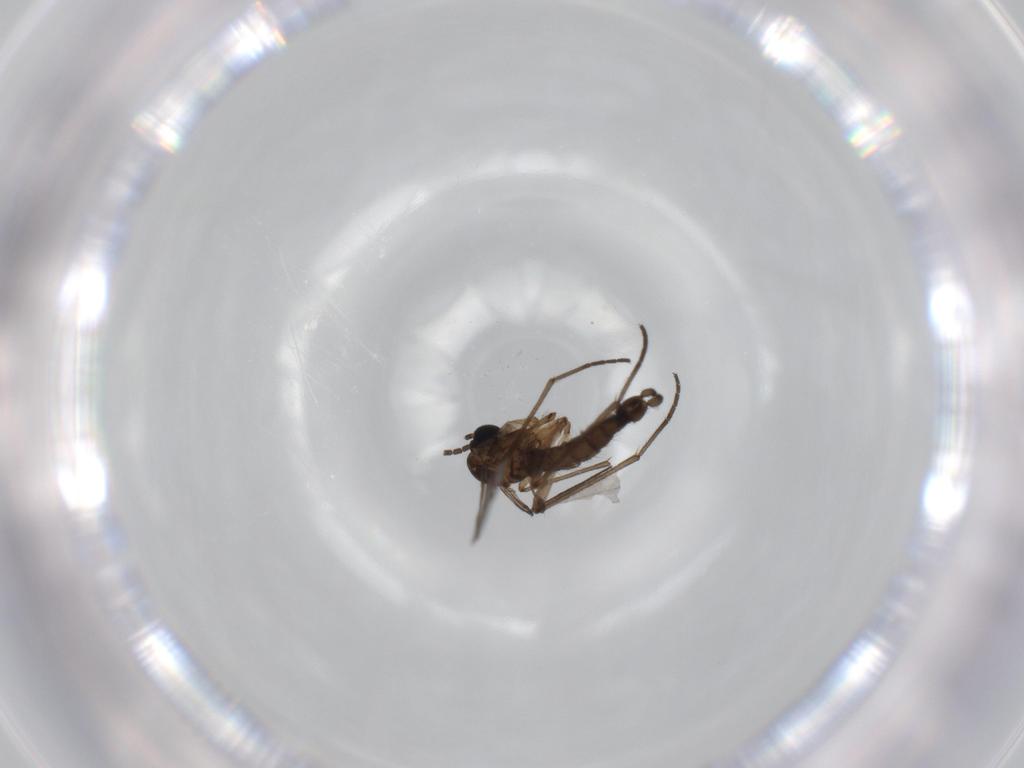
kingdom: Animalia
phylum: Arthropoda
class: Insecta
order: Diptera
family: Sciaridae
